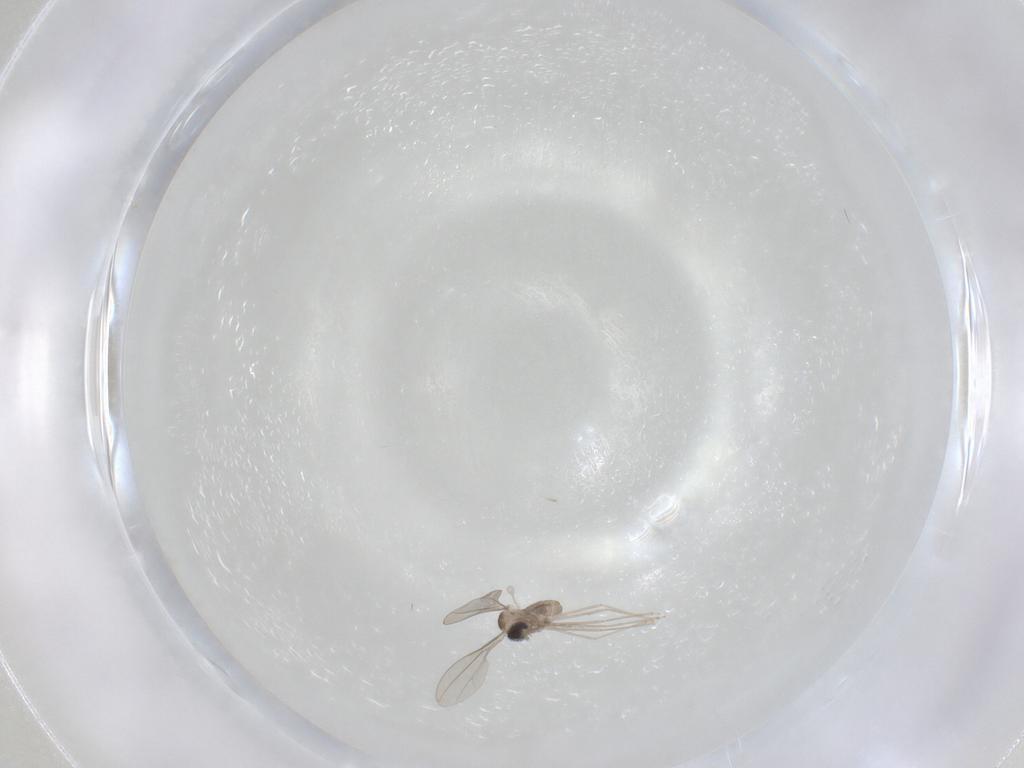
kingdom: Animalia
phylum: Arthropoda
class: Insecta
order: Diptera
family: Cecidomyiidae
